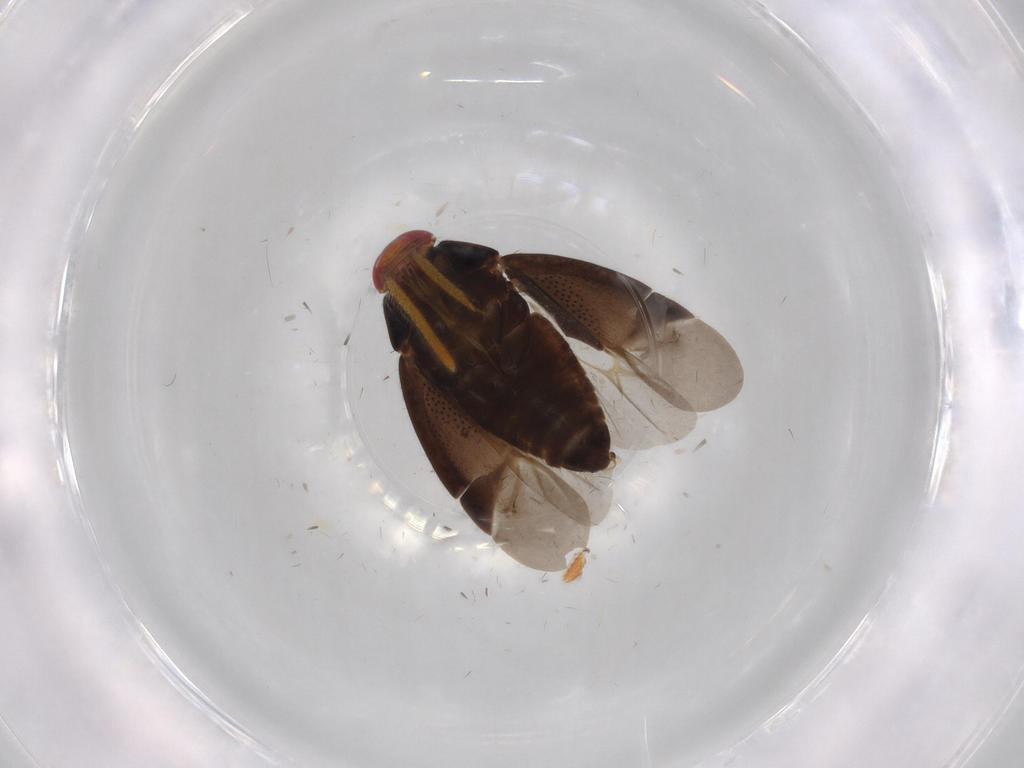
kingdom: Animalia
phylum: Arthropoda
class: Insecta
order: Hemiptera
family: Miridae
